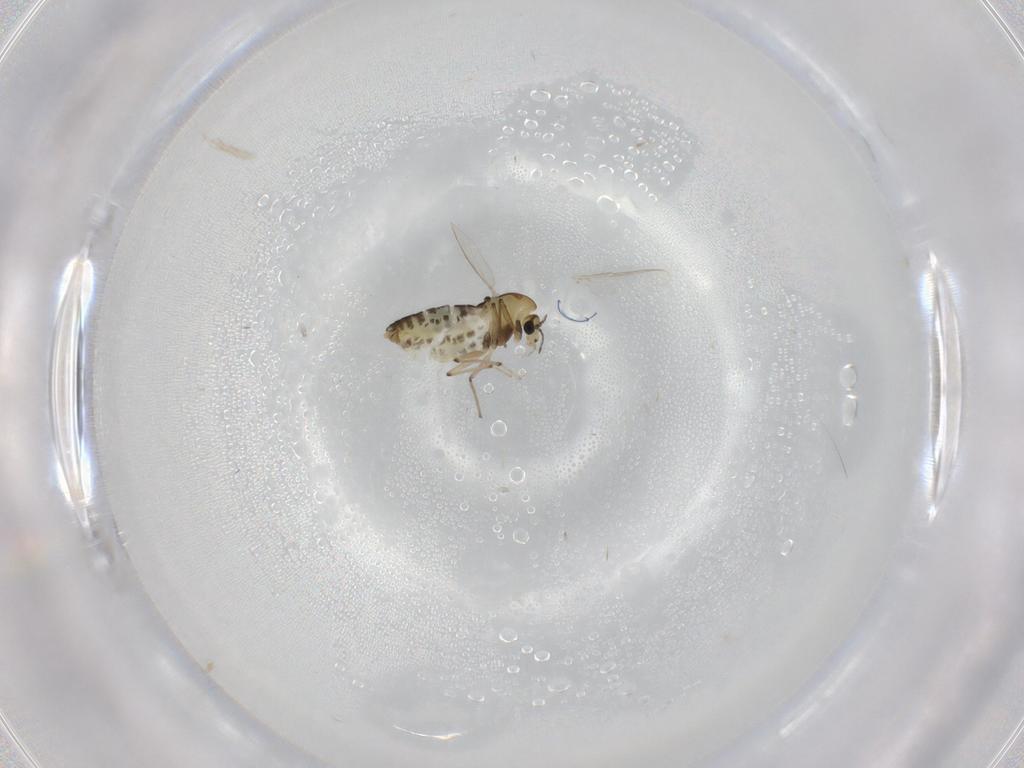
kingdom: Animalia
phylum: Arthropoda
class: Insecta
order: Diptera
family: Chironomidae
